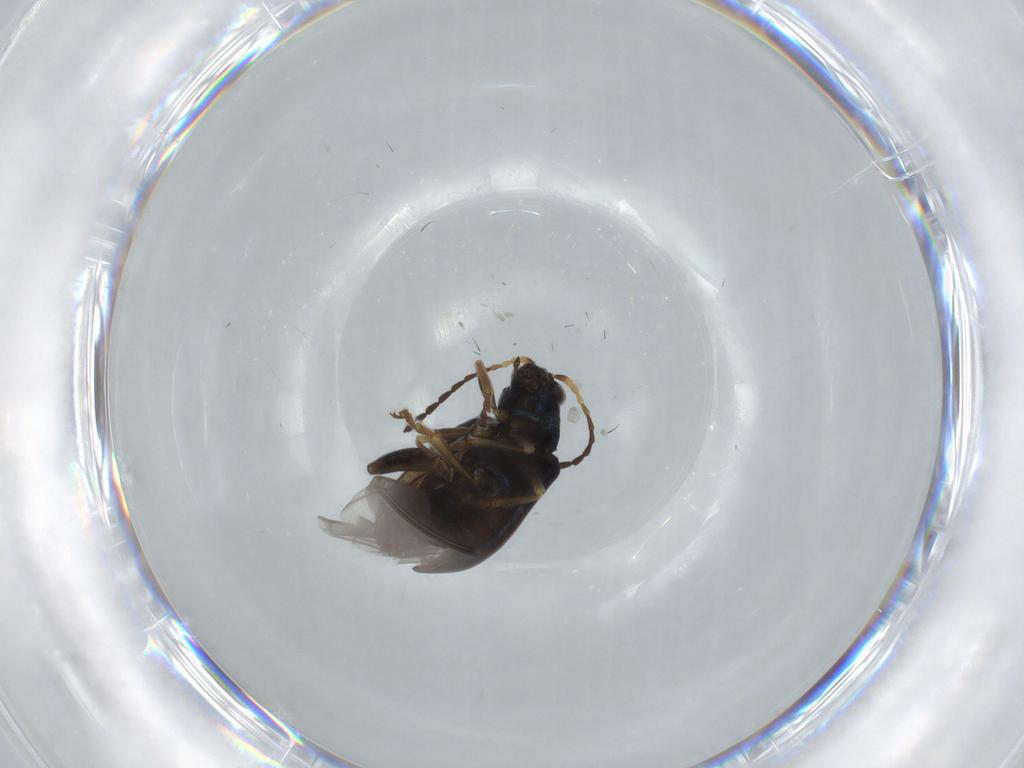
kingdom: Animalia
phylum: Arthropoda
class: Insecta
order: Coleoptera
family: Chrysomelidae
